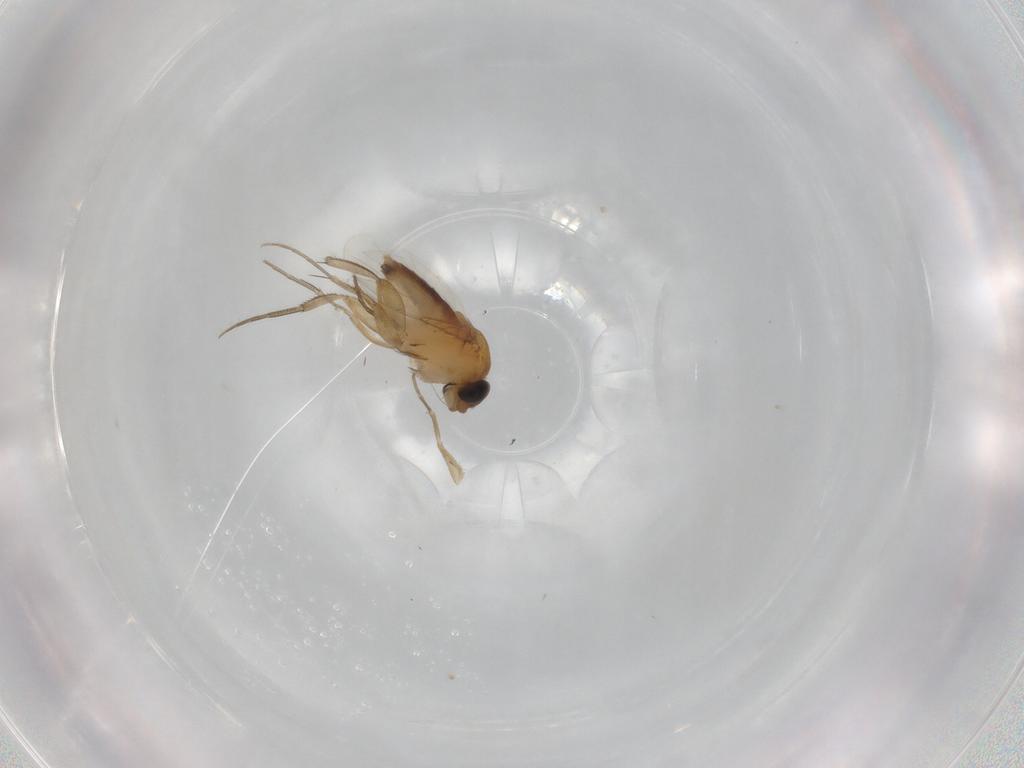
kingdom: Animalia
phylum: Arthropoda
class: Insecta
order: Diptera
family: Phoridae
